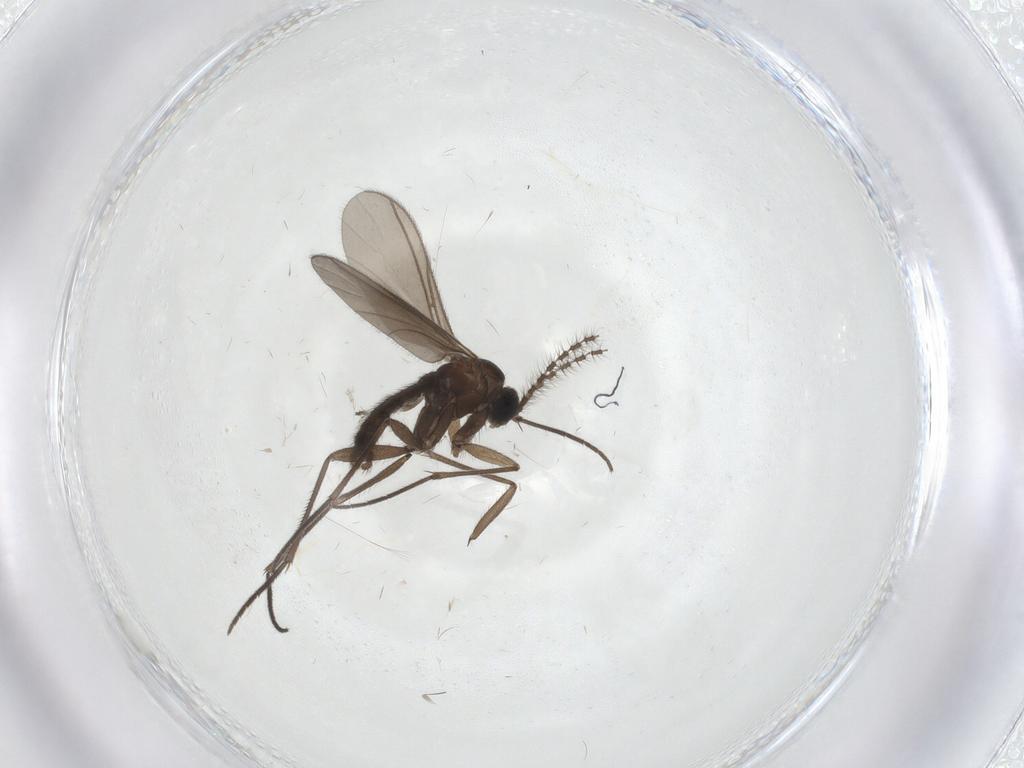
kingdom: Animalia
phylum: Arthropoda
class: Insecta
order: Diptera
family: Sciaridae
